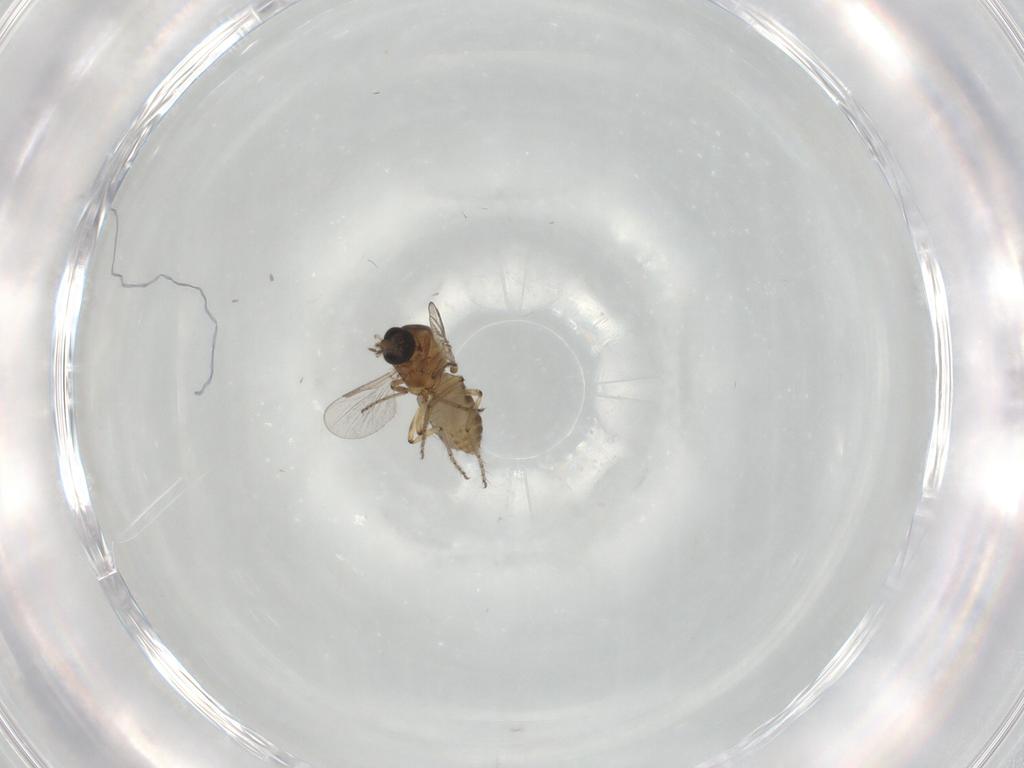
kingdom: Animalia
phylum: Arthropoda
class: Insecta
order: Diptera
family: Ceratopogonidae
